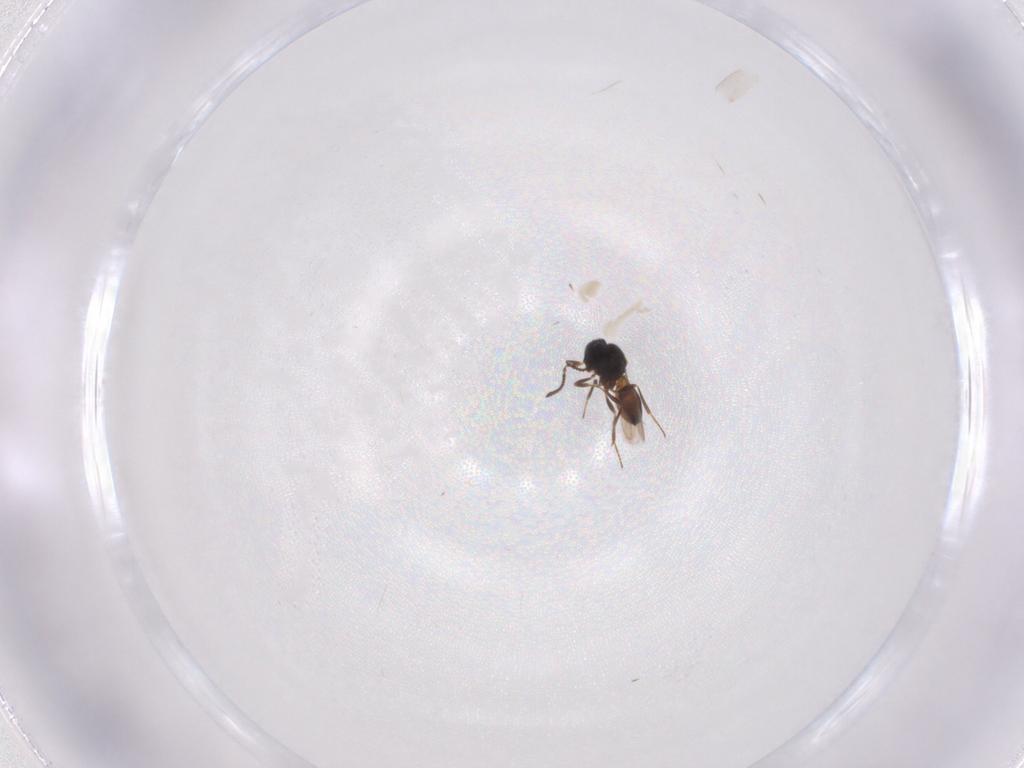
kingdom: Animalia
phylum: Arthropoda
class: Insecta
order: Hymenoptera
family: Scelionidae
